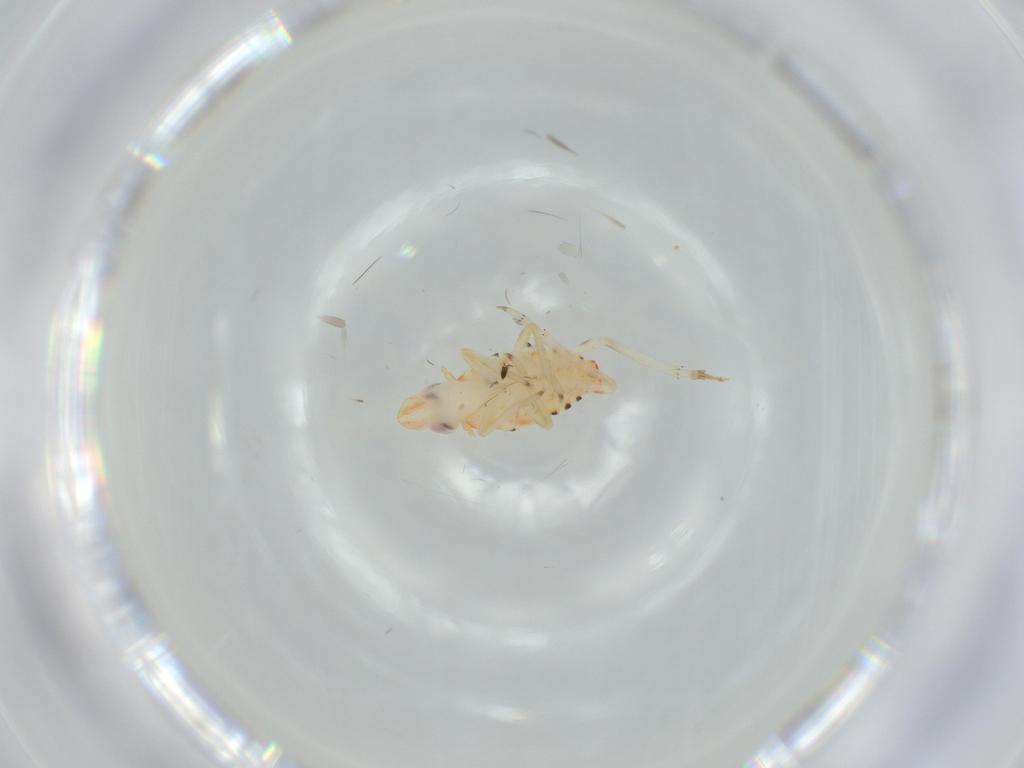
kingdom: Animalia
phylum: Arthropoda
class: Insecta
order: Hemiptera
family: Tropiduchidae
